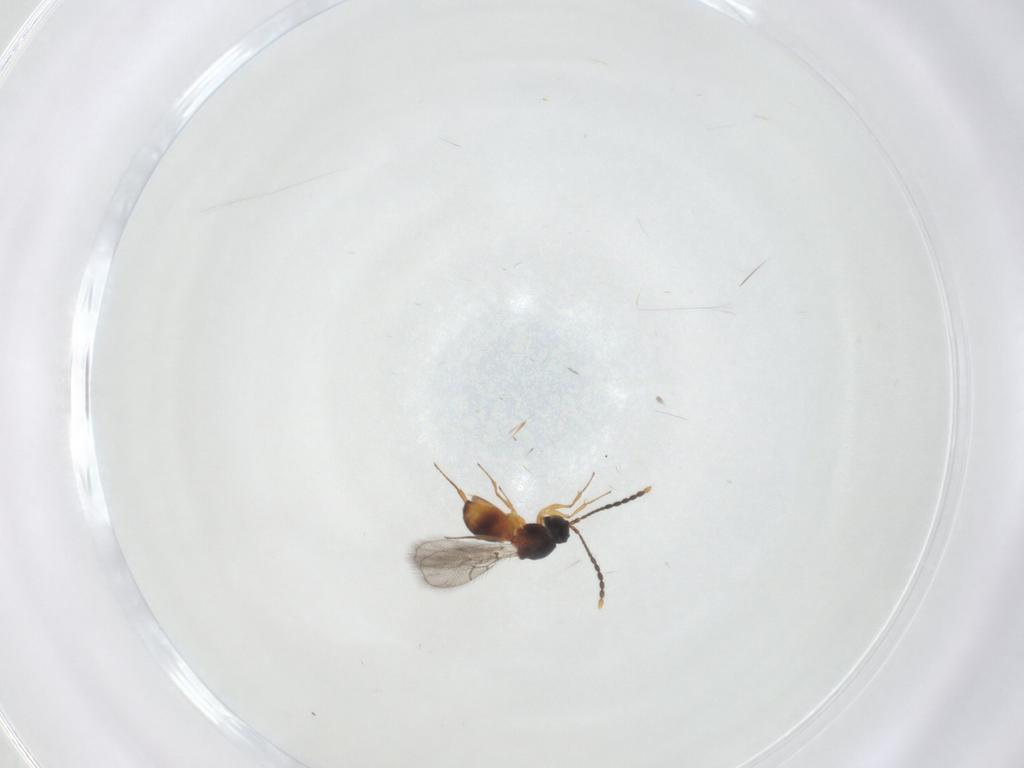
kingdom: Animalia
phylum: Arthropoda
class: Insecta
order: Hymenoptera
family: Figitidae
